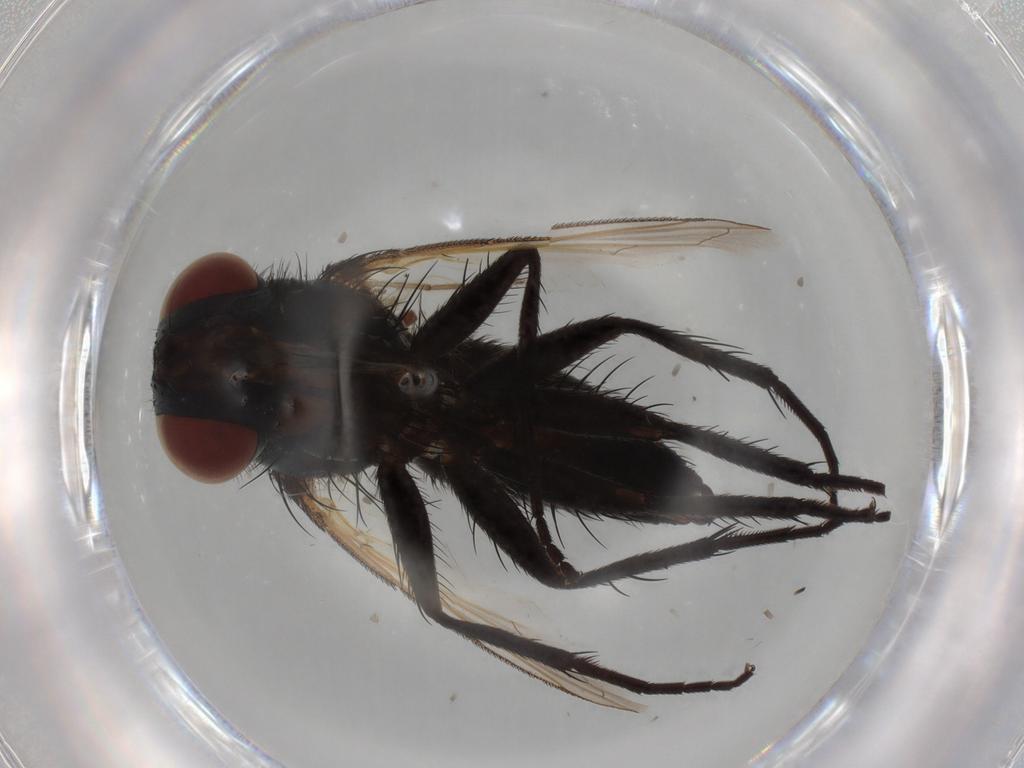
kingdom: Animalia
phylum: Arthropoda
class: Insecta
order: Diptera
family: Tachinidae
